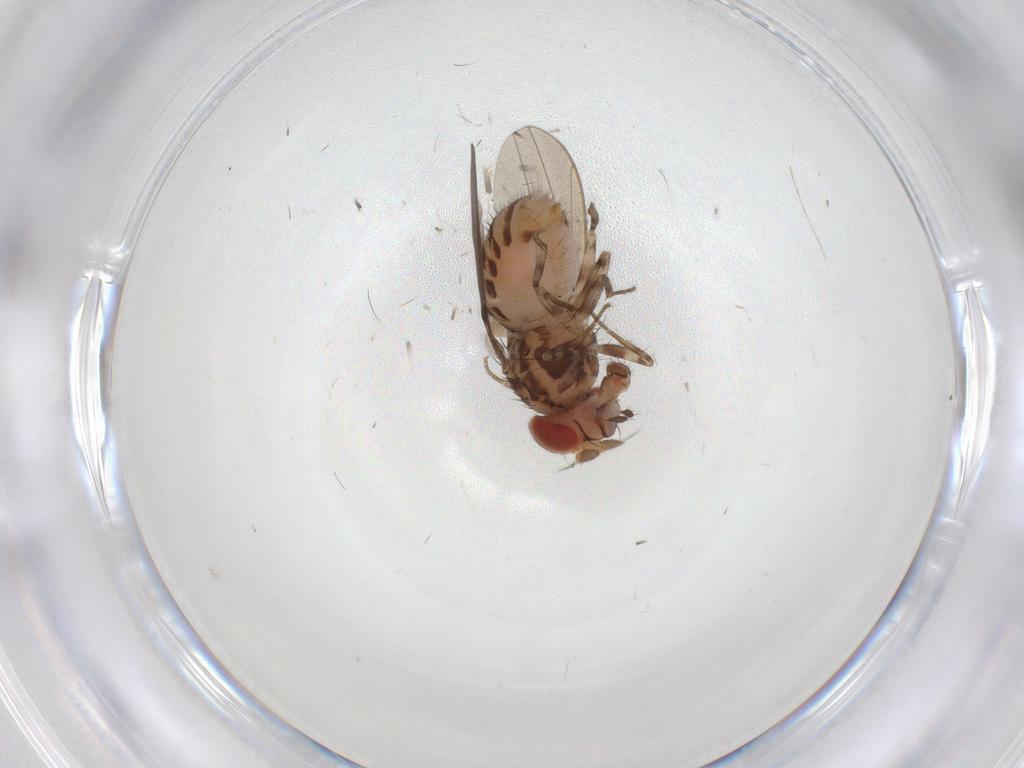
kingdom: Animalia
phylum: Arthropoda
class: Insecta
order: Diptera
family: Drosophilidae
